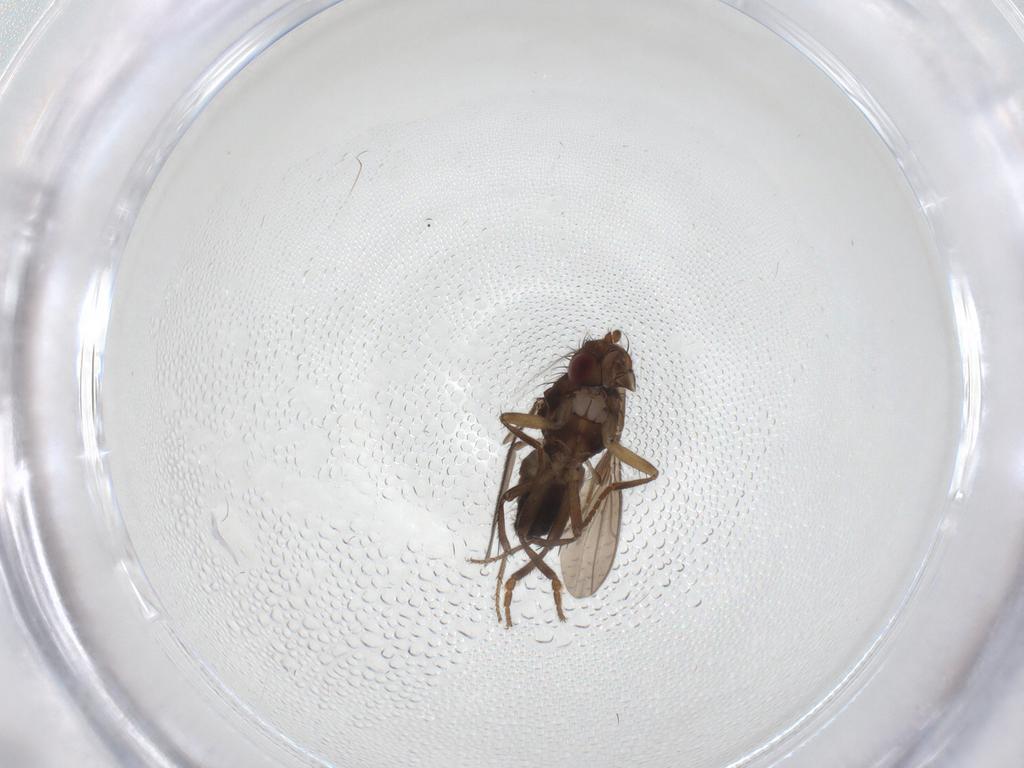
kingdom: Animalia
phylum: Arthropoda
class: Insecta
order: Diptera
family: Sphaeroceridae
